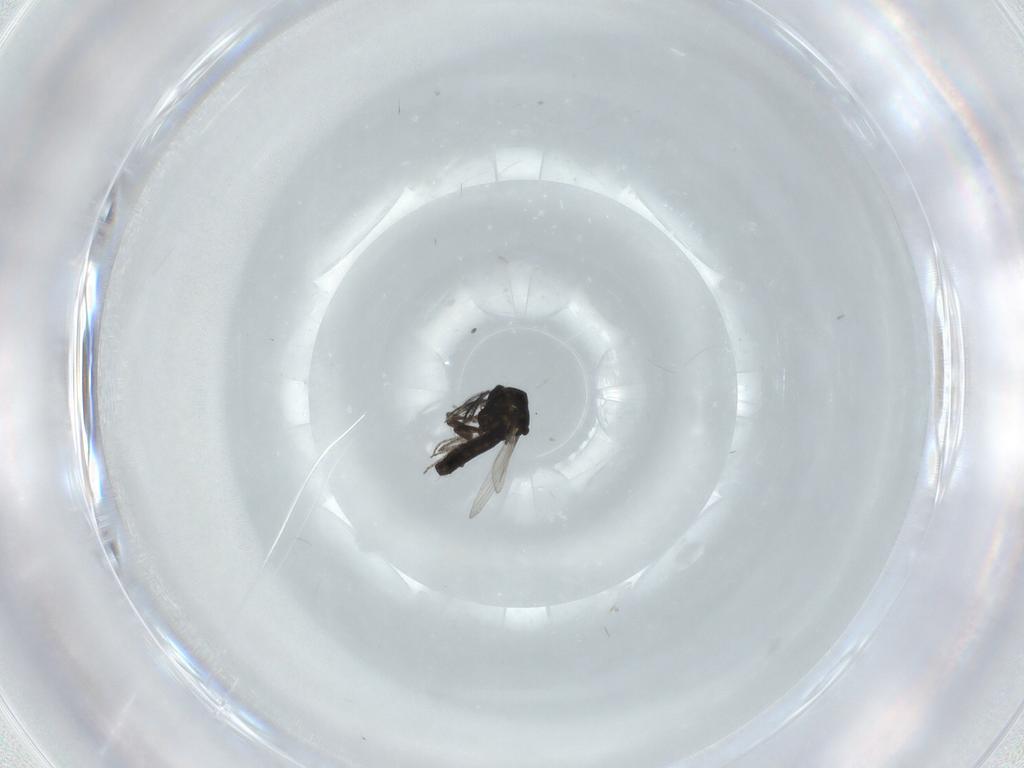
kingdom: Animalia
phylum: Arthropoda
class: Insecta
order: Diptera
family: Ceratopogonidae
